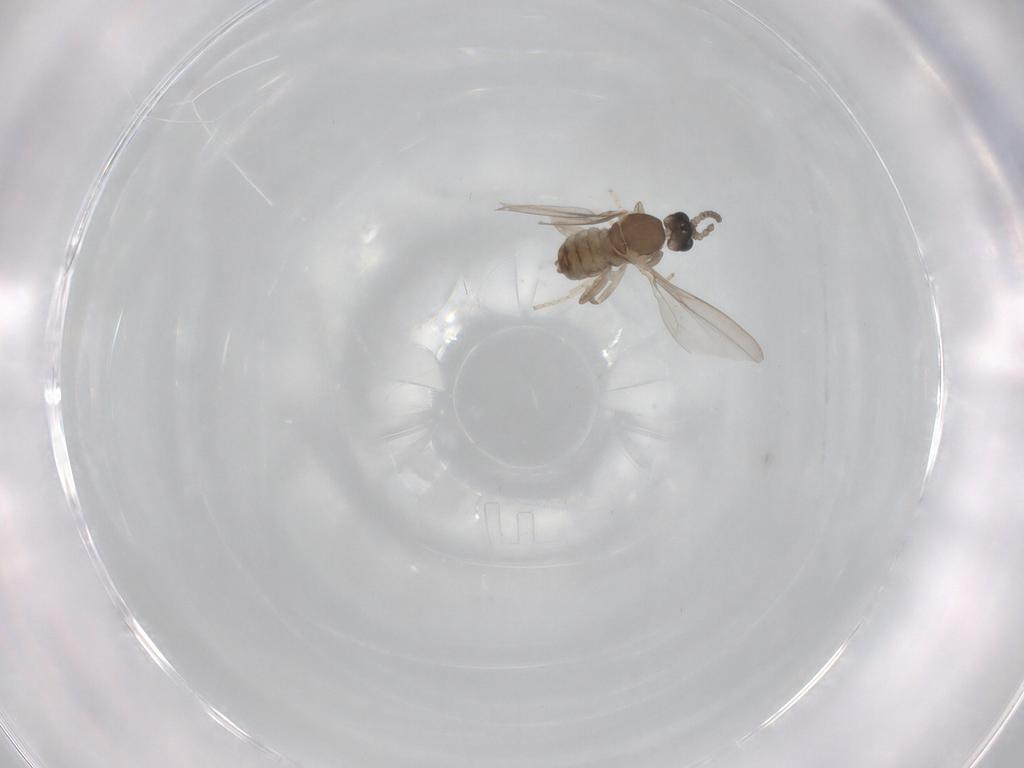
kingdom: Animalia
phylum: Arthropoda
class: Insecta
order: Diptera
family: Cecidomyiidae
